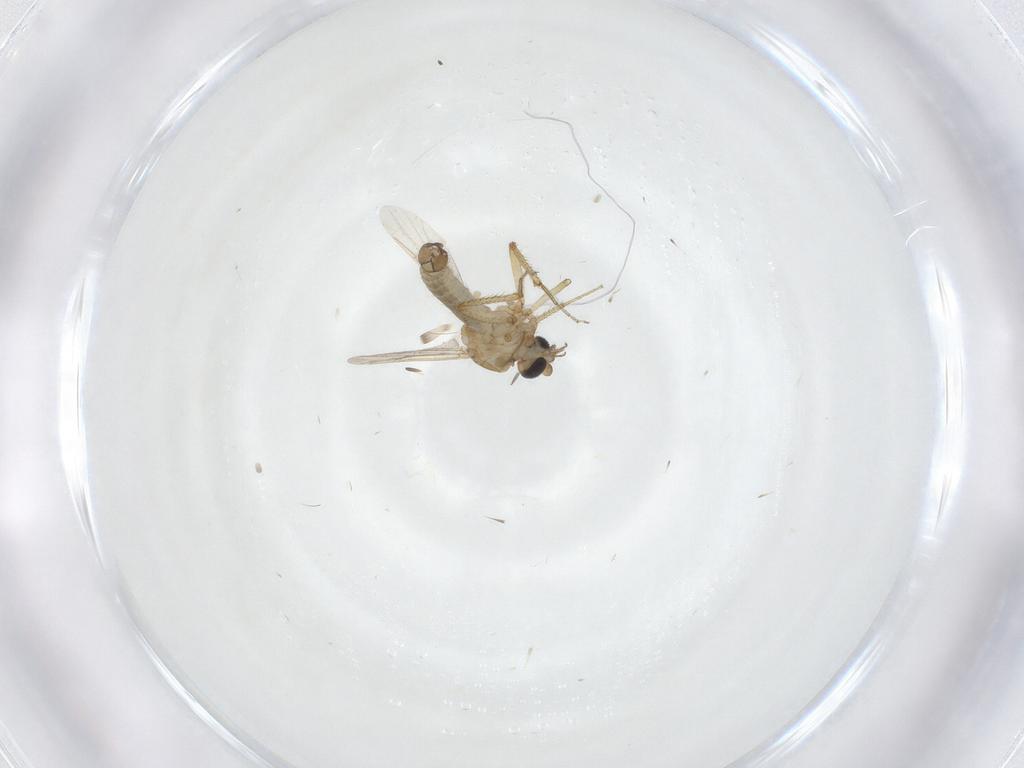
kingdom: Animalia
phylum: Arthropoda
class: Insecta
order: Diptera
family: Ceratopogonidae
